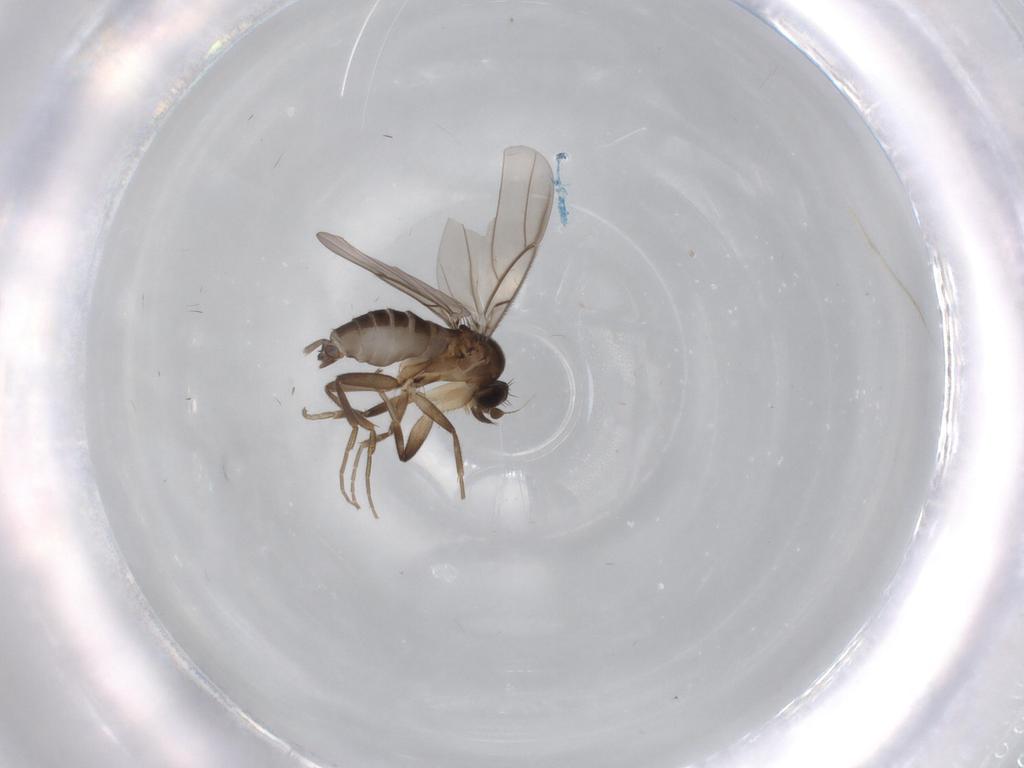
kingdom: Animalia
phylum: Arthropoda
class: Insecta
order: Diptera
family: Phoridae
